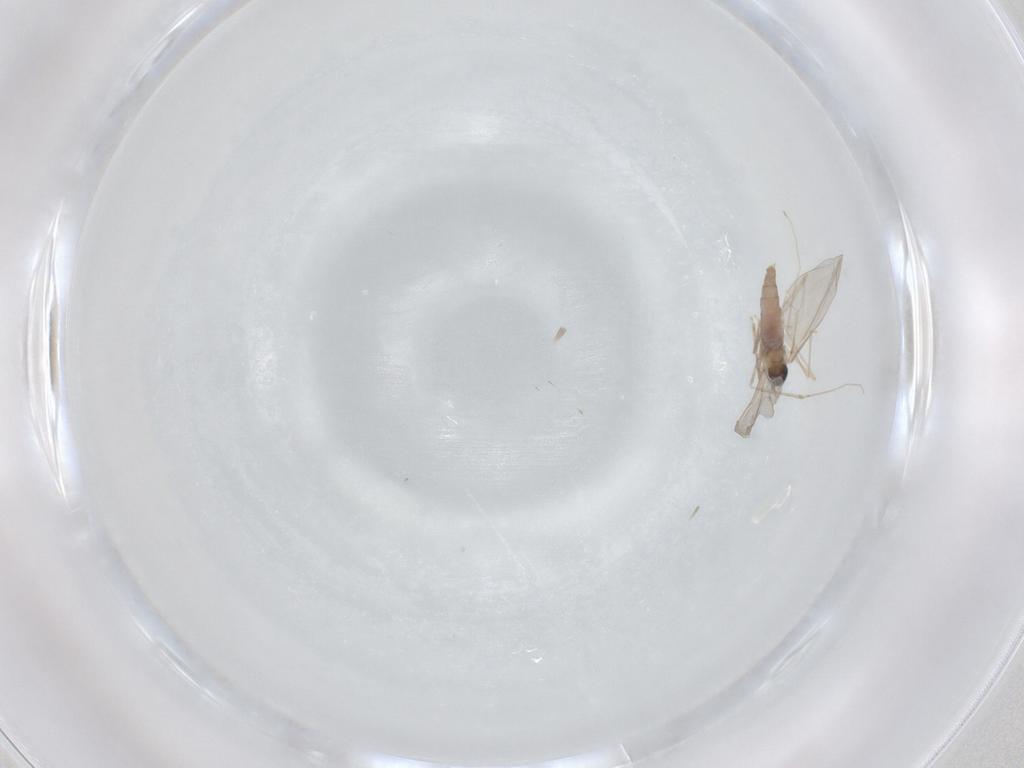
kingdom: Animalia
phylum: Arthropoda
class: Insecta
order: Diptera
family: Cecidomyiidae
